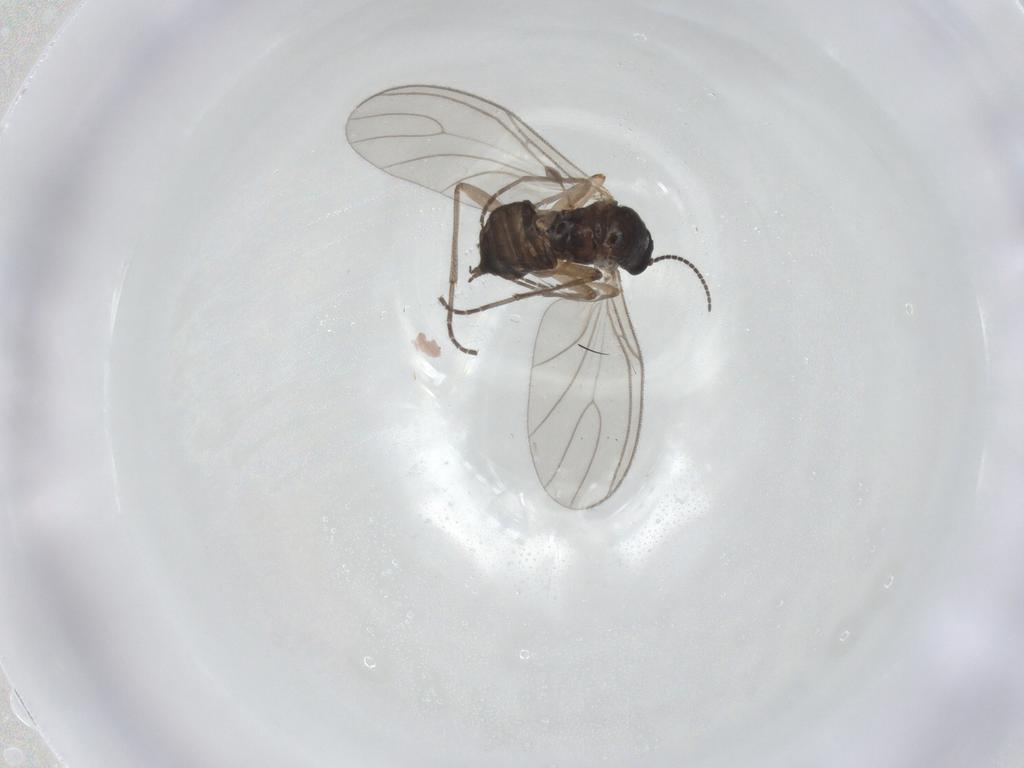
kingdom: Animalia
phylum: Arthropoda
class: Insecta
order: Diptera
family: Sciaridae
